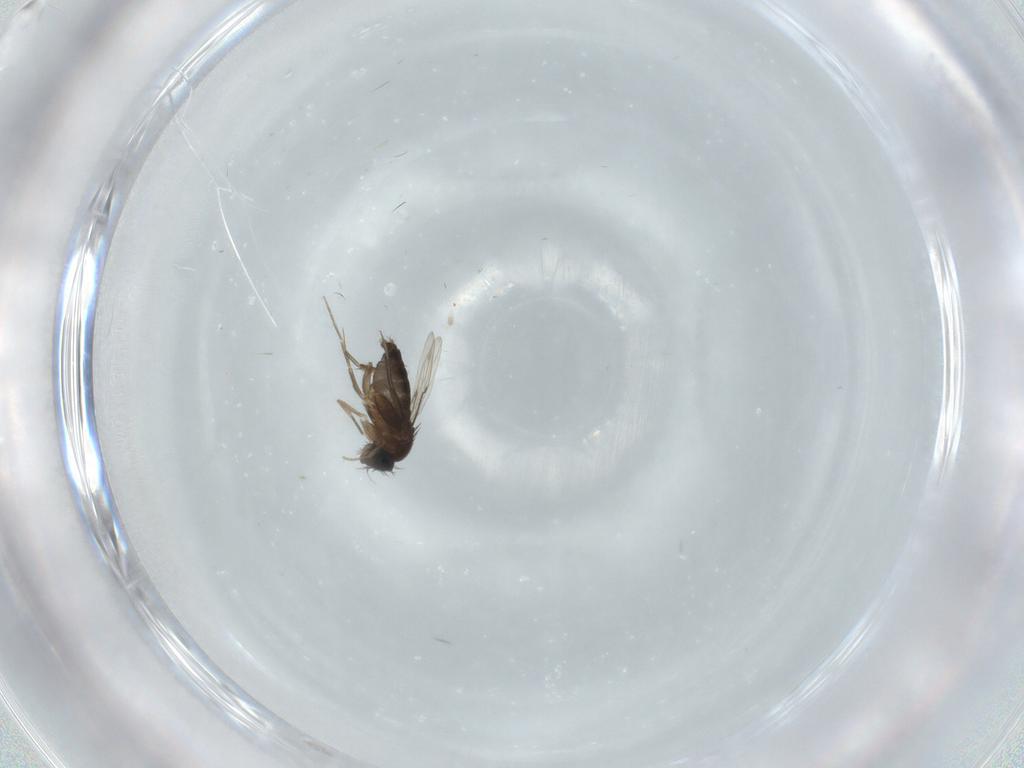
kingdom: Animalia
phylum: Arthropoda
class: Insecta
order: Diptera
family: Phoridae
